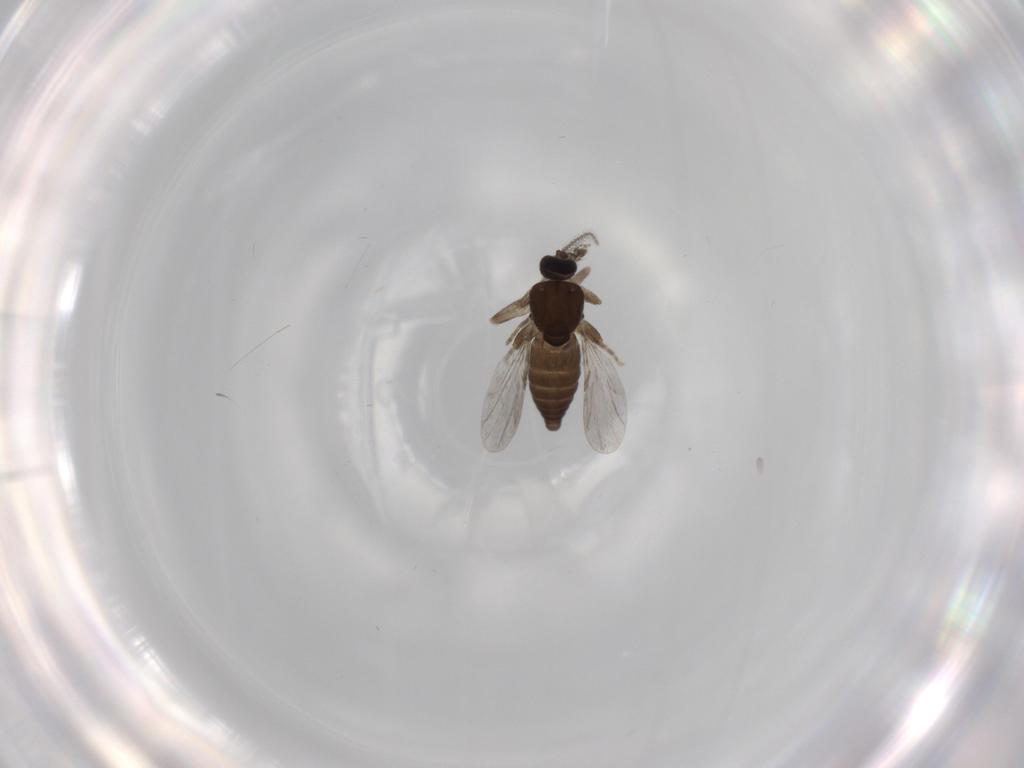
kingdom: Animalia
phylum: Arthropoda
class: Insecta
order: Diptera
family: Ceratopogonidae
